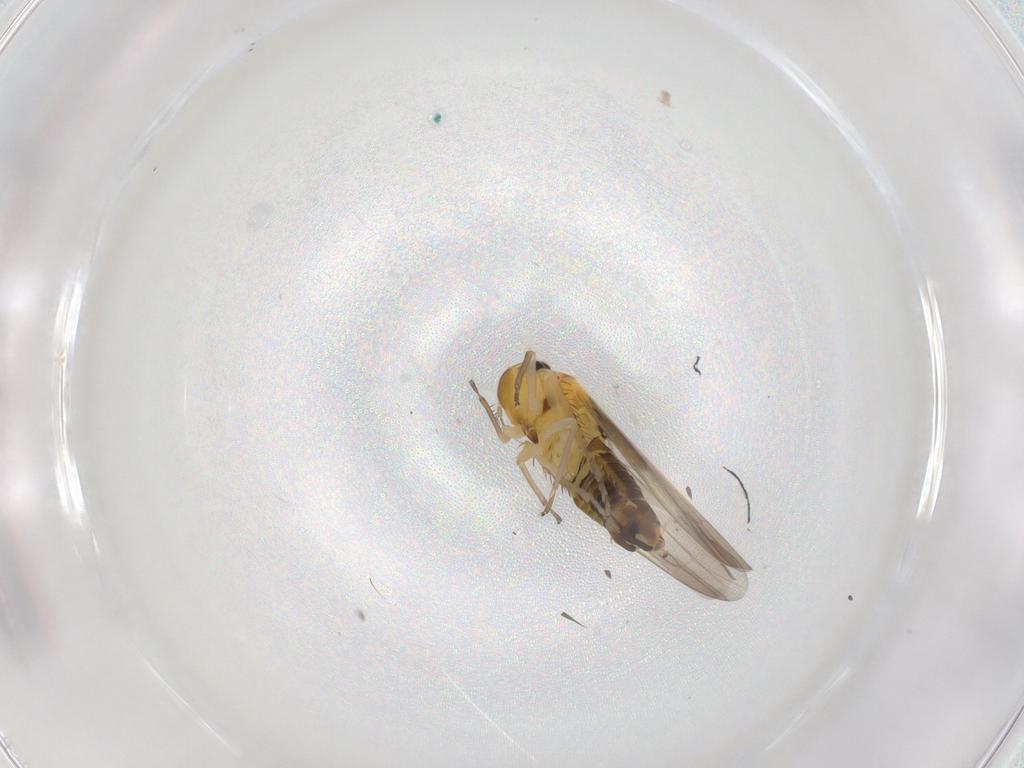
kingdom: Animalia
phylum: Arthropoda
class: Insecta
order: Hemiptera
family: Cicadellidae
